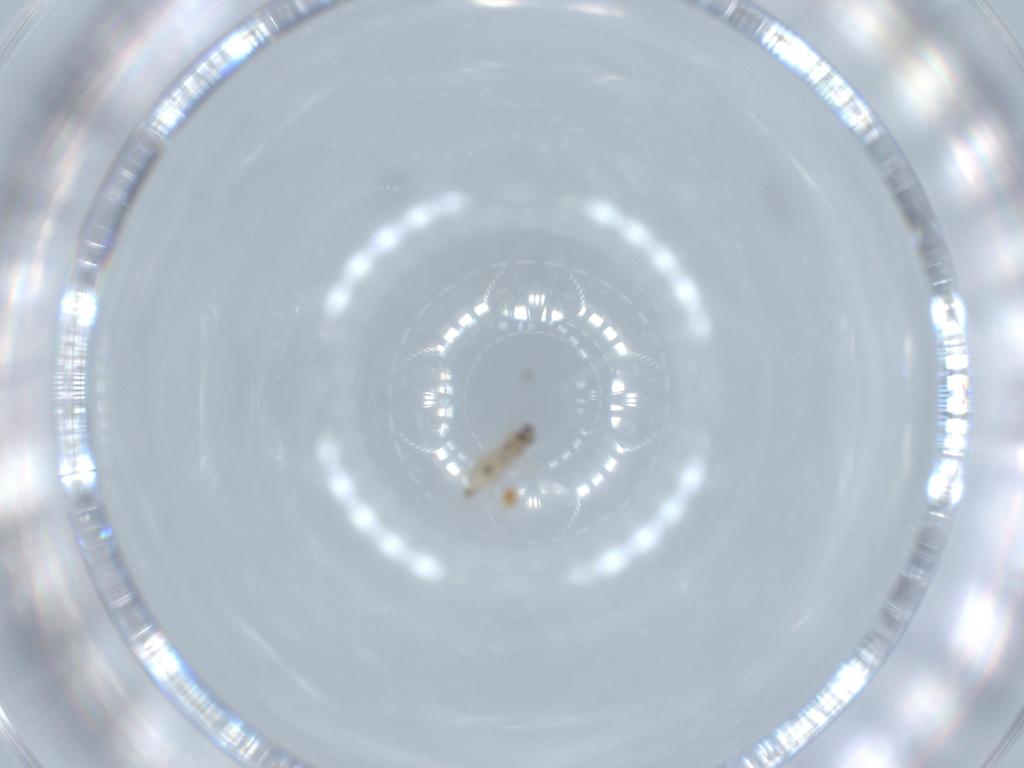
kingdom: Animalia
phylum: Arthropoda
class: Insecta
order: Diptera
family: Cecidomyiidae
